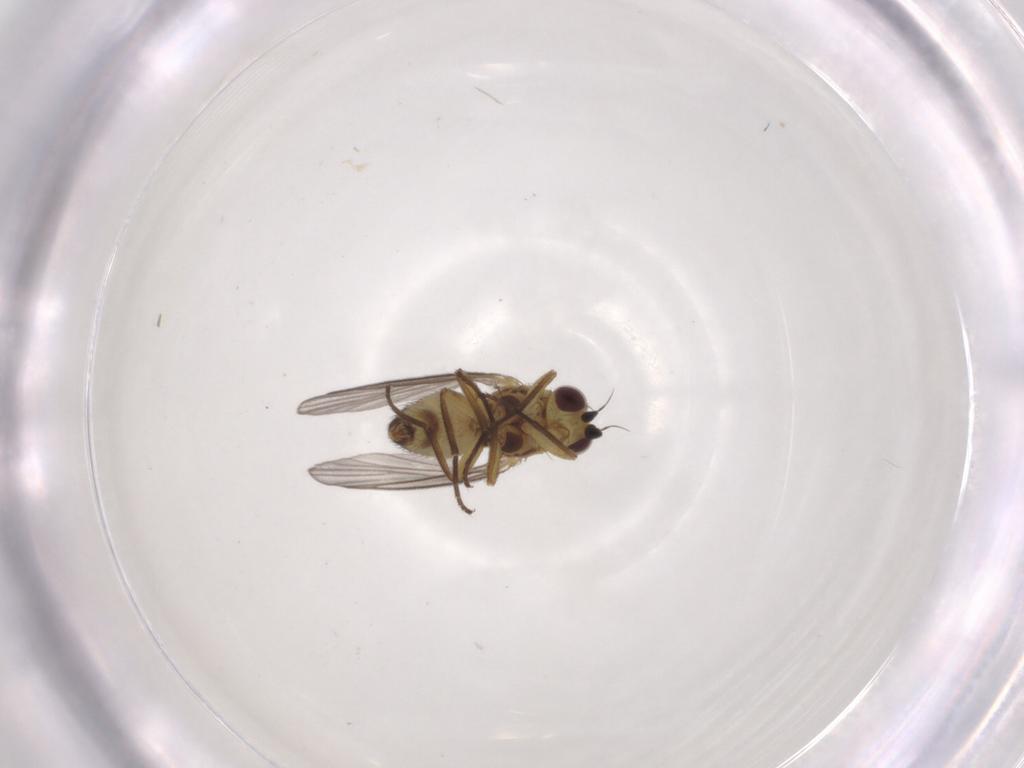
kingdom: Animalia
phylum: Arthropoda
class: Insecta
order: Diptera
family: Agromyzidae
